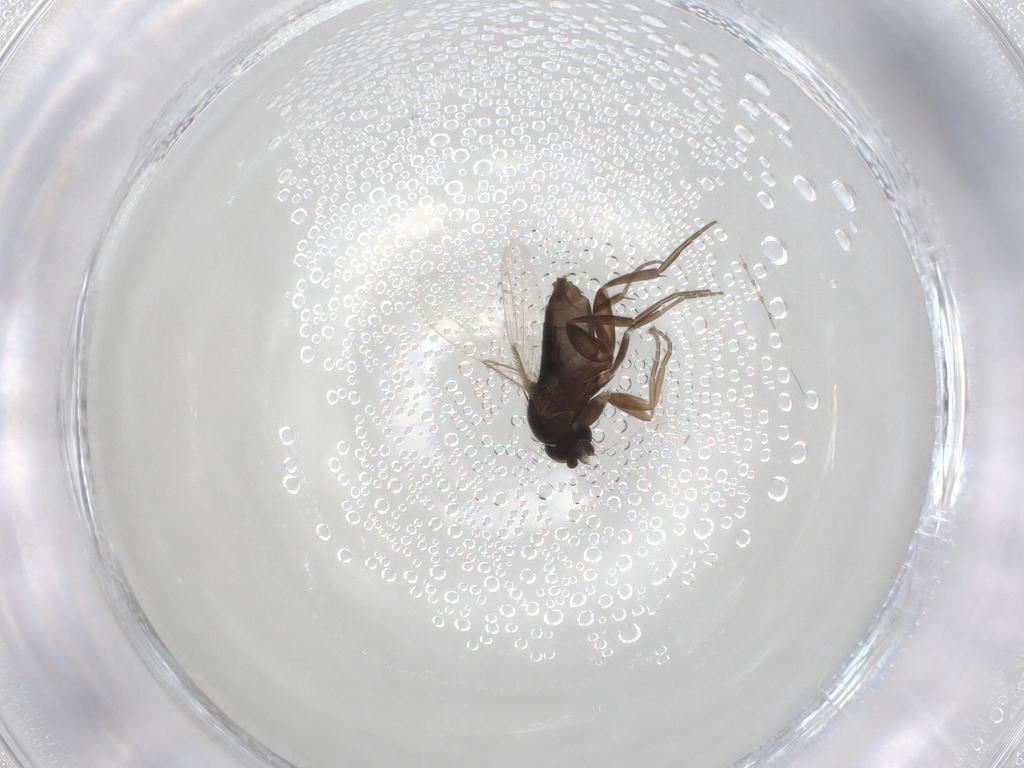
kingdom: Animalia
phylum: Arthropoda
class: Insecta
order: Diptera
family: Phoridae
